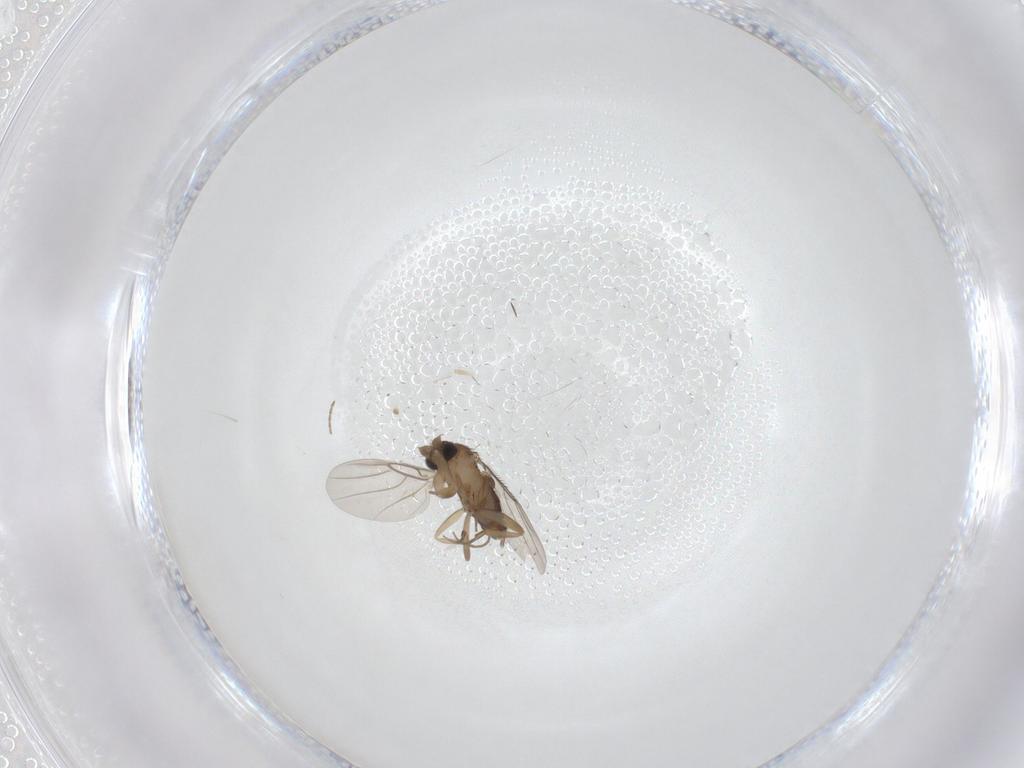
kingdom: Animalia
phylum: Arthropoda
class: Insecta
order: Diptera
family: Phoridae
